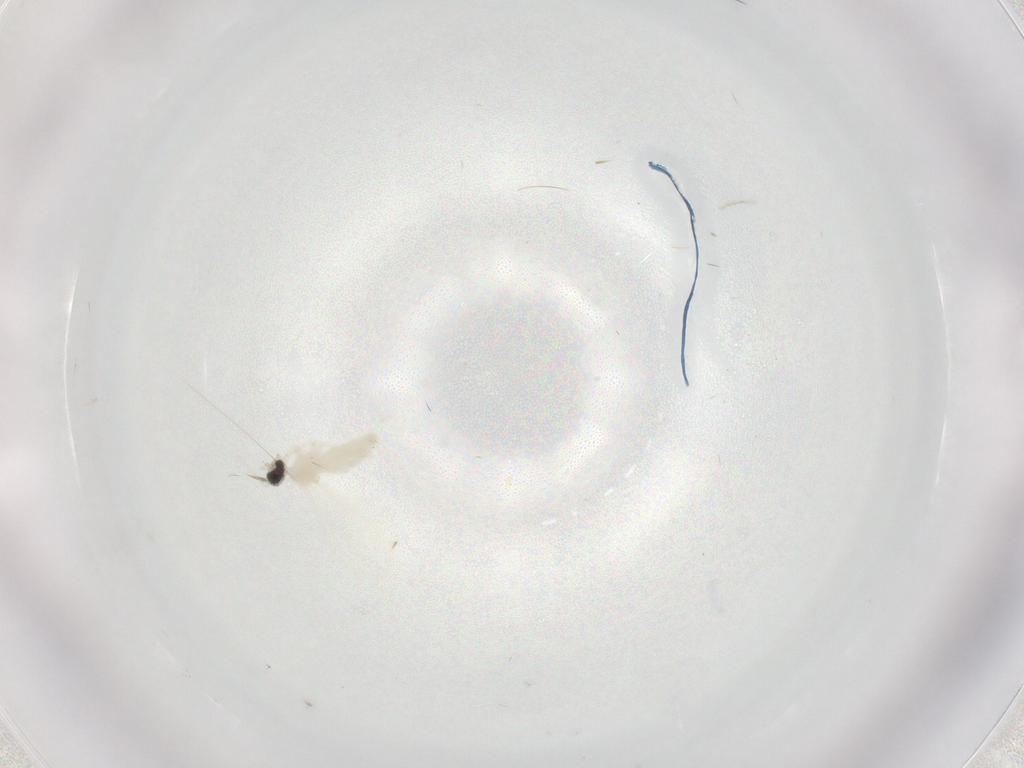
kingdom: Animalia
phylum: Arthropoda
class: Insecta
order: Diptera
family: Cecidomyiidae
